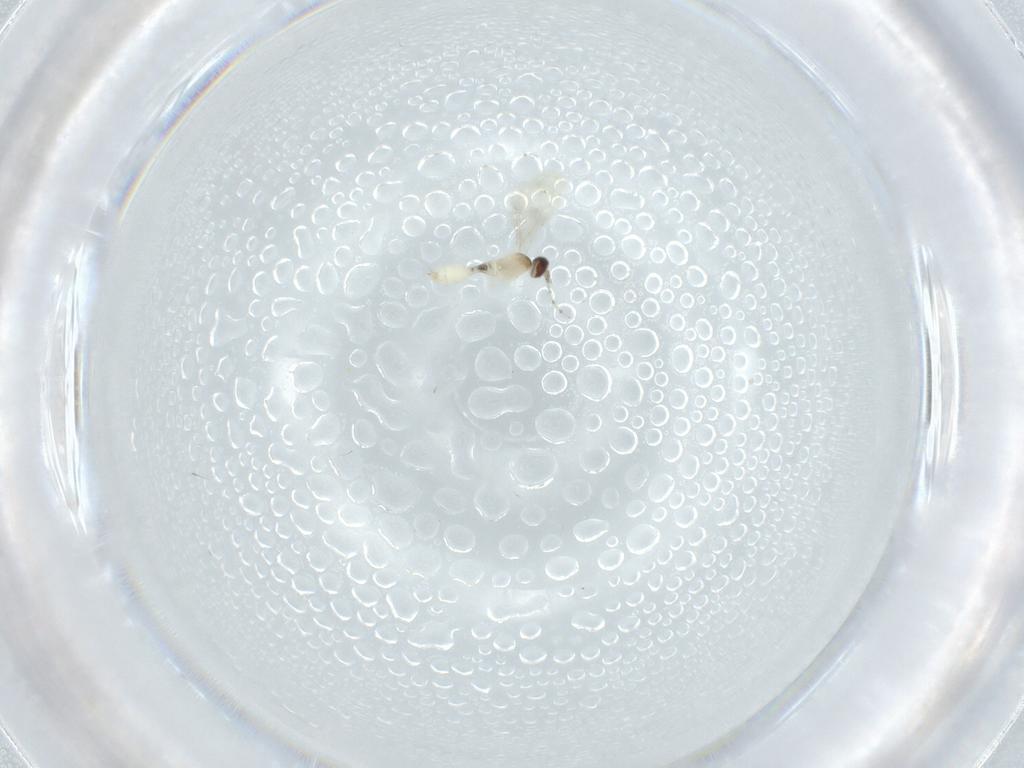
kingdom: Animalia
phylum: Arthropoda
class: Insecta
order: Diptera
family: Cecidomyiidae
